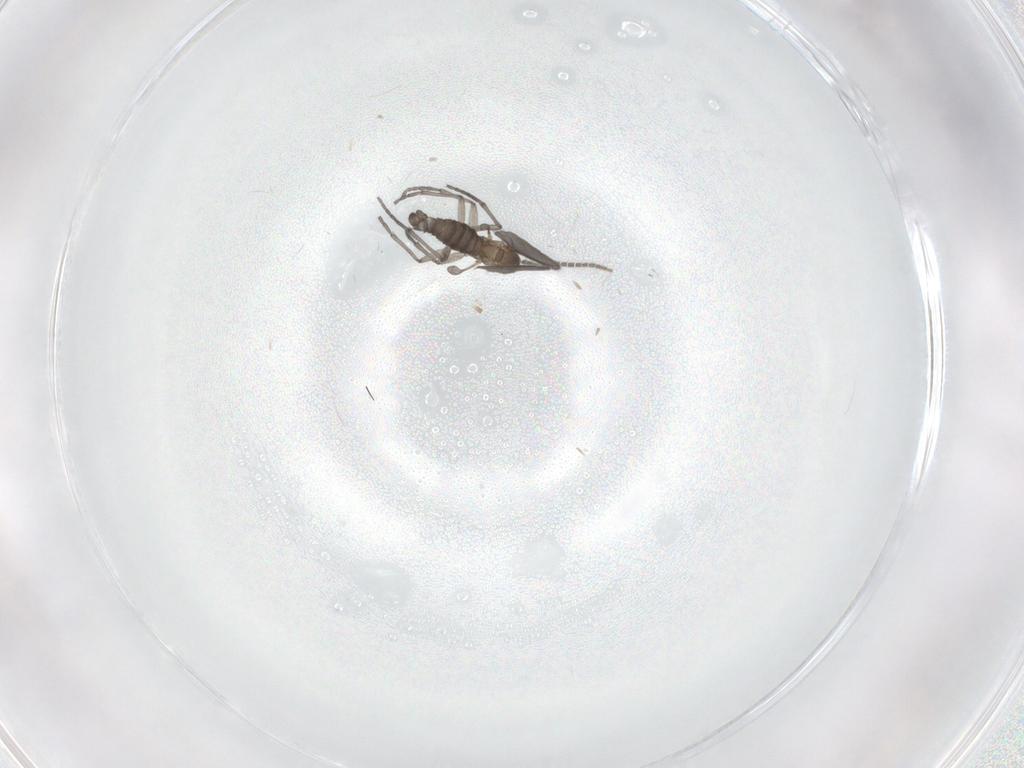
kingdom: Animalia
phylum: Arthropoda
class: Insecta
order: Diptera
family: Sciaridae
